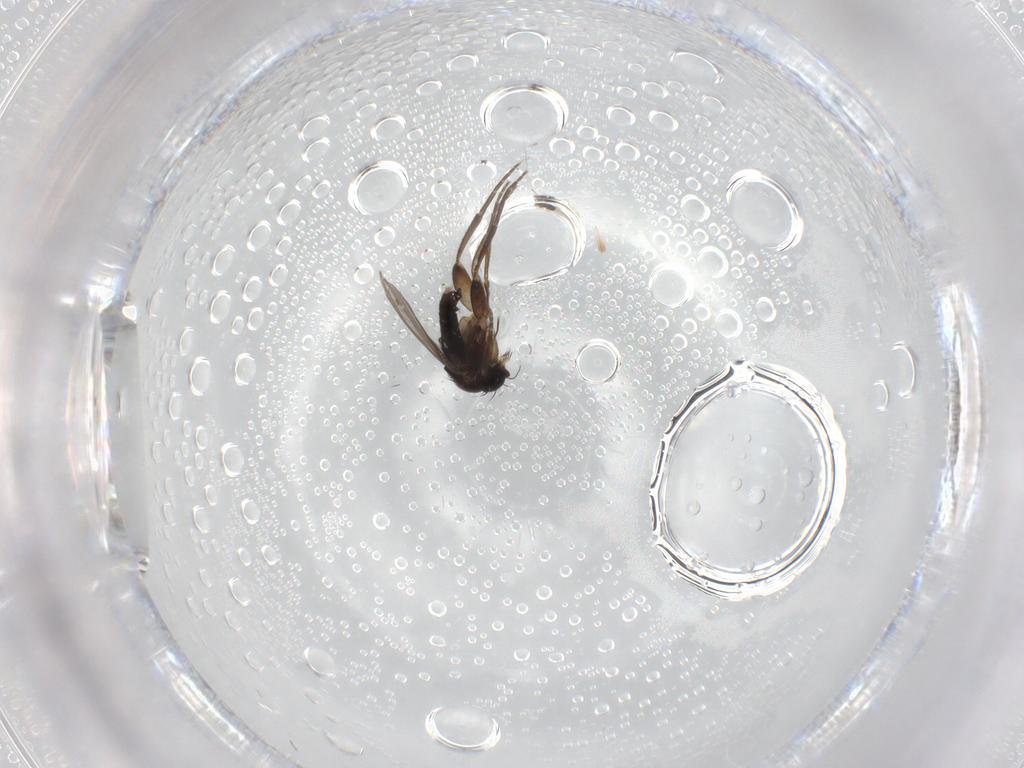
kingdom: Animalia
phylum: Arthropoda
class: Insecta
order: Diptera
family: Phoridae
